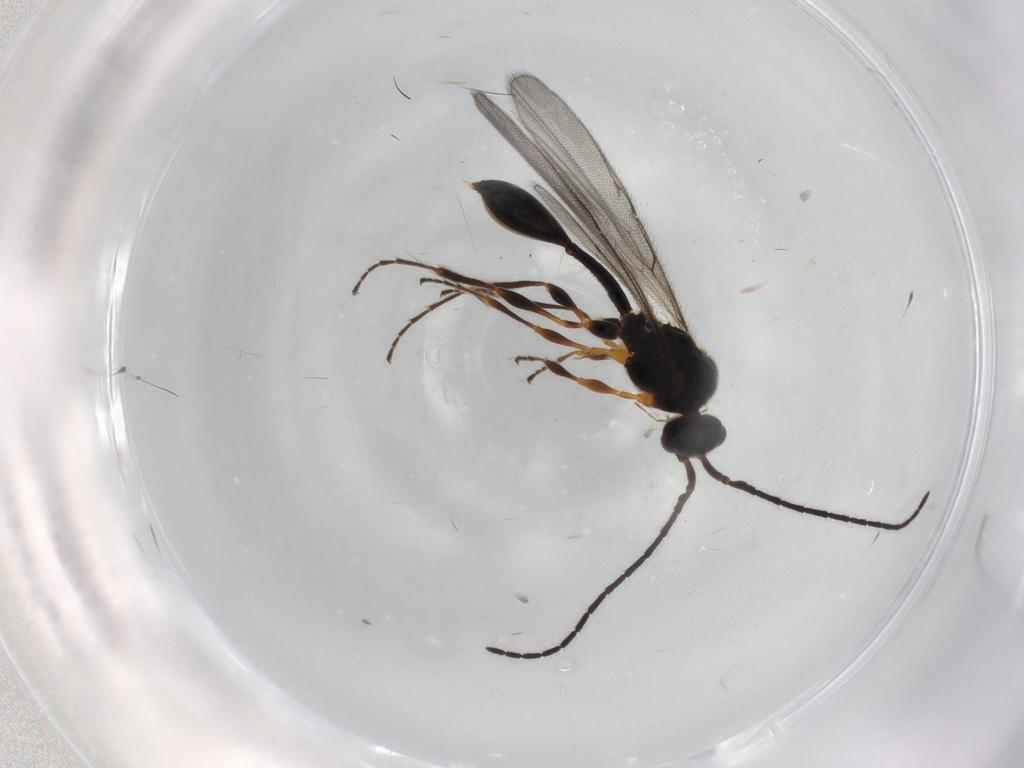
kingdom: Animalia
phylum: Arthropoda
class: Insecta
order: Hymenoptera
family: Diapriidae
